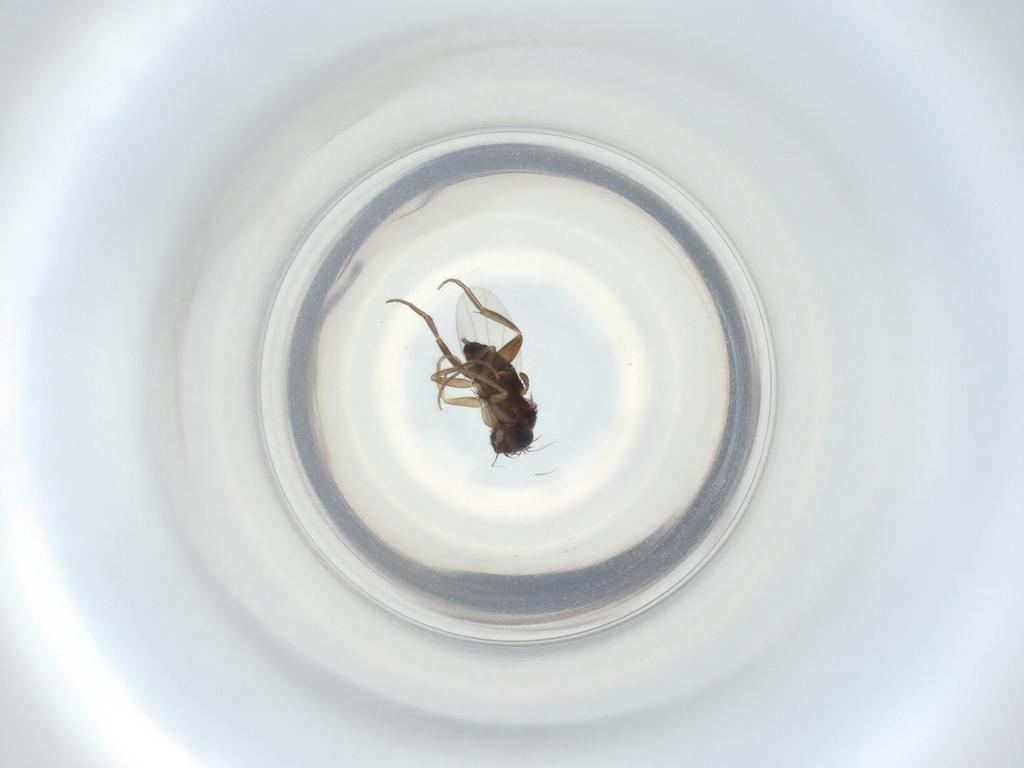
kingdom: Animalia
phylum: Arthropoda
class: Insecta
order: Diptera
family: Phoridae
